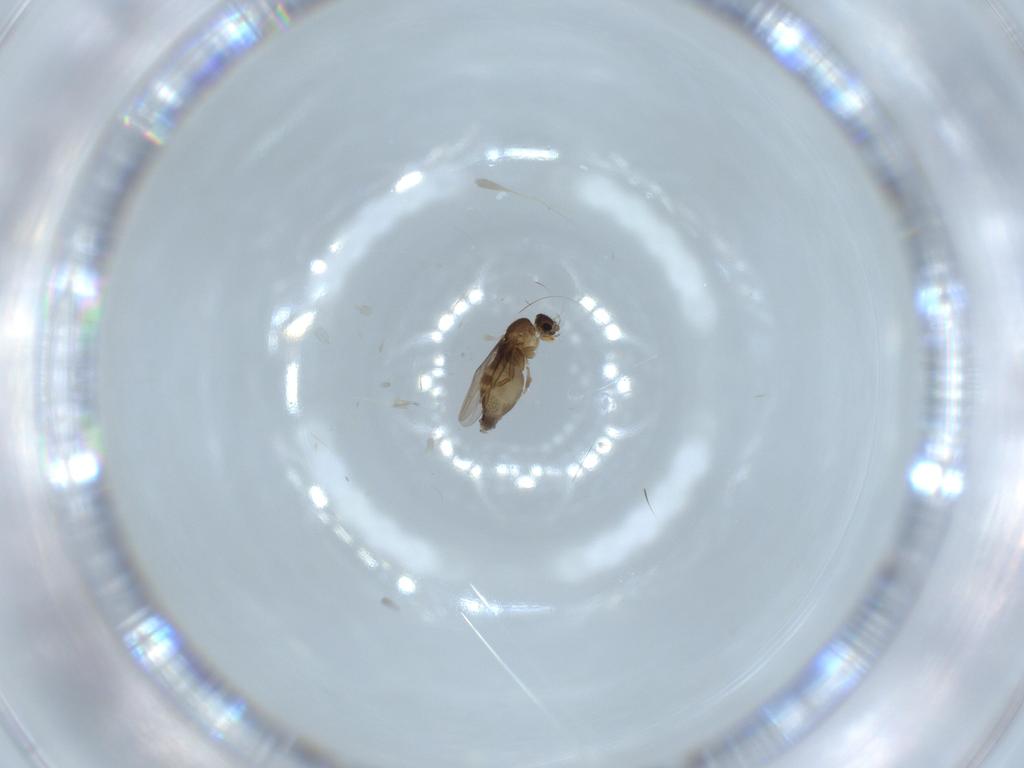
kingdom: Animalia
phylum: Arthropoda
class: Insecta
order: Diptera
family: Phoridae
